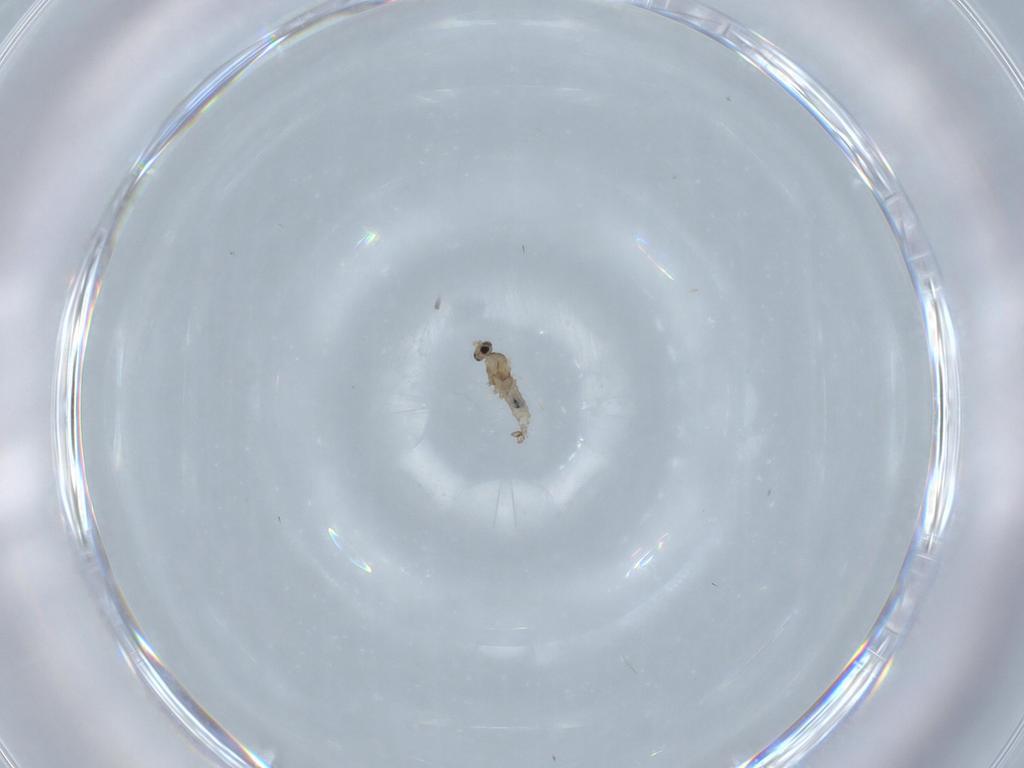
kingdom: Animalia
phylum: Arthropoda
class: Insecta
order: Diptera
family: Cecidomyiidae
